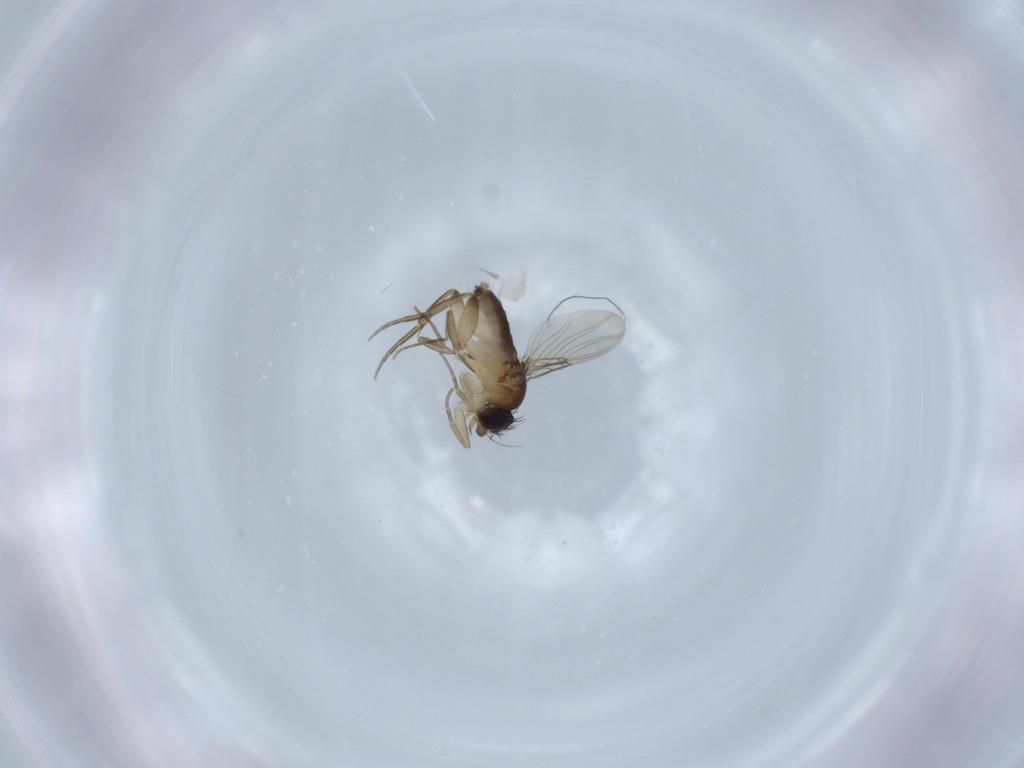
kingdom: Animalia
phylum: Arthropoda
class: Insecta
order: Diptera
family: Phoridae
